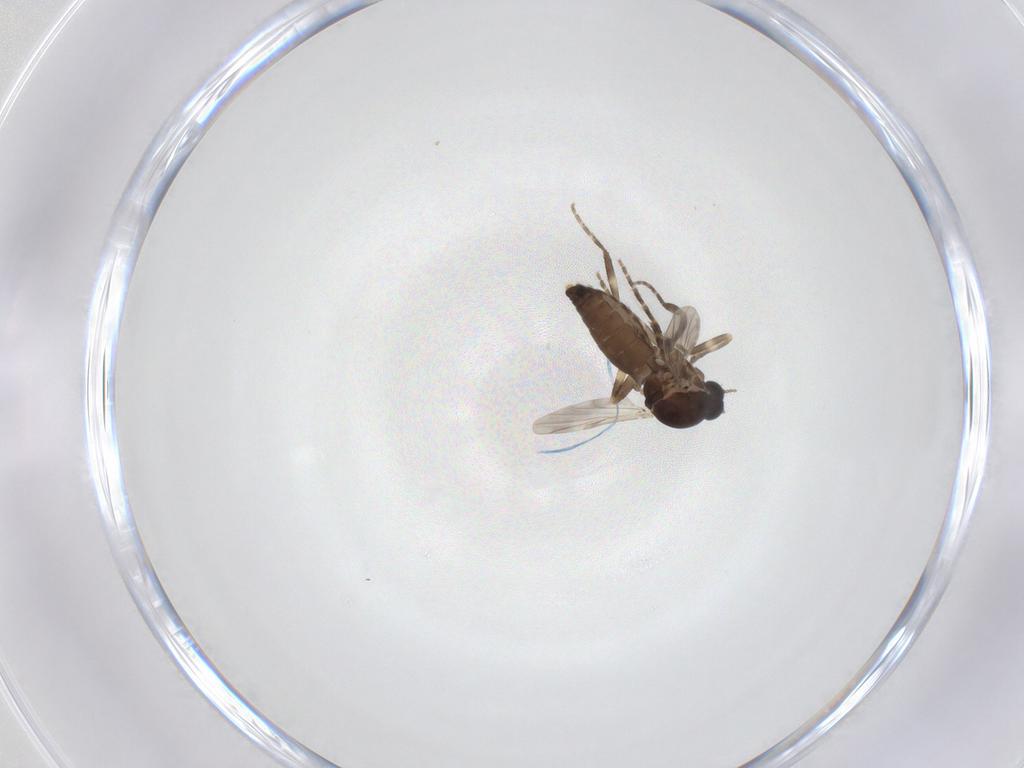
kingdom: Animalia
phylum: Arthropoda
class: Insecta
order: Diptera
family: Ceratopogonidae
